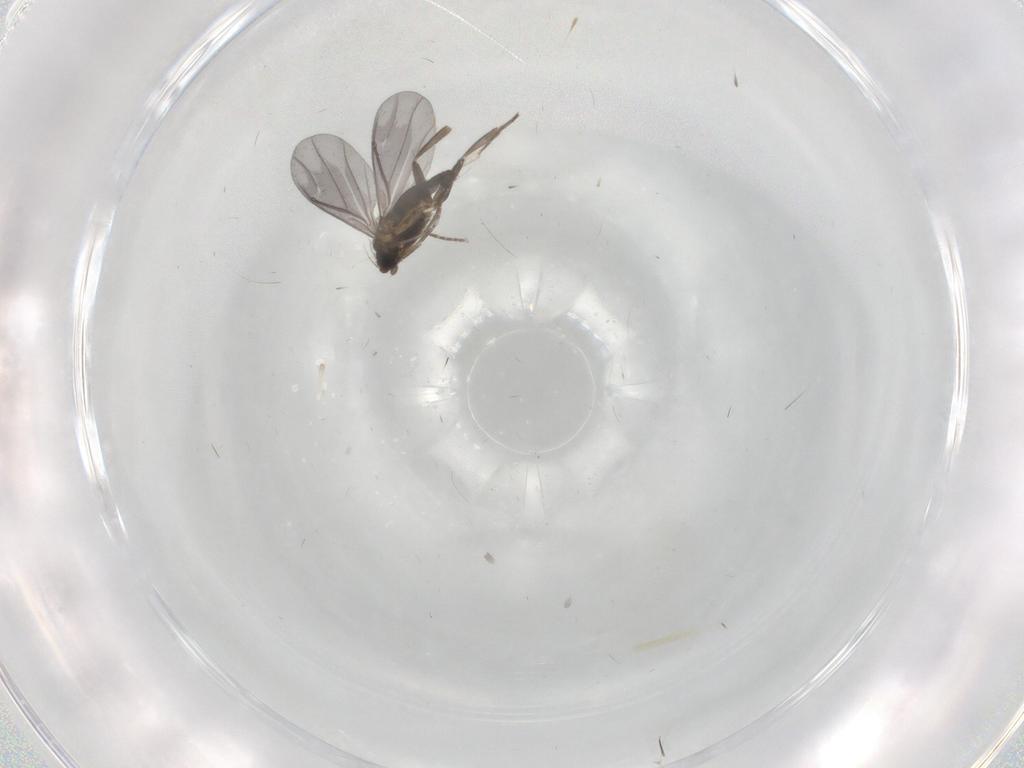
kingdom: Animalia
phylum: Arthropoda
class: Insecta
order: Diptera
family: Phoridae
